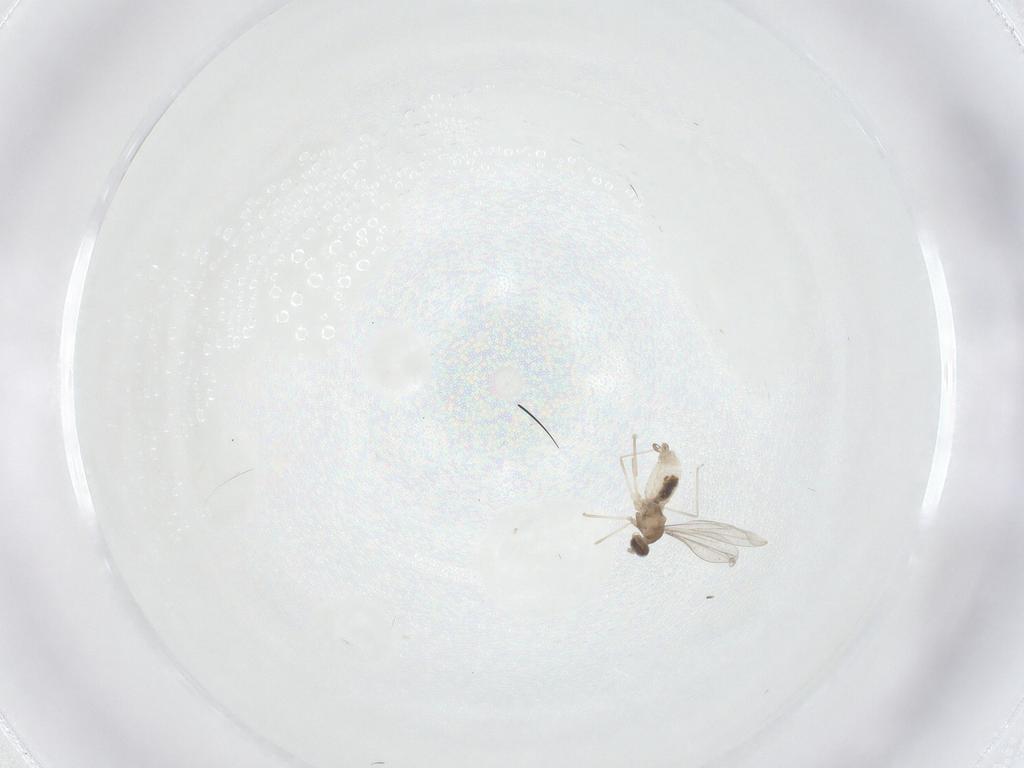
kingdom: Animalia
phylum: Arthropoda
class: Insecta
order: Diptera
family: Cecidomyiidae
